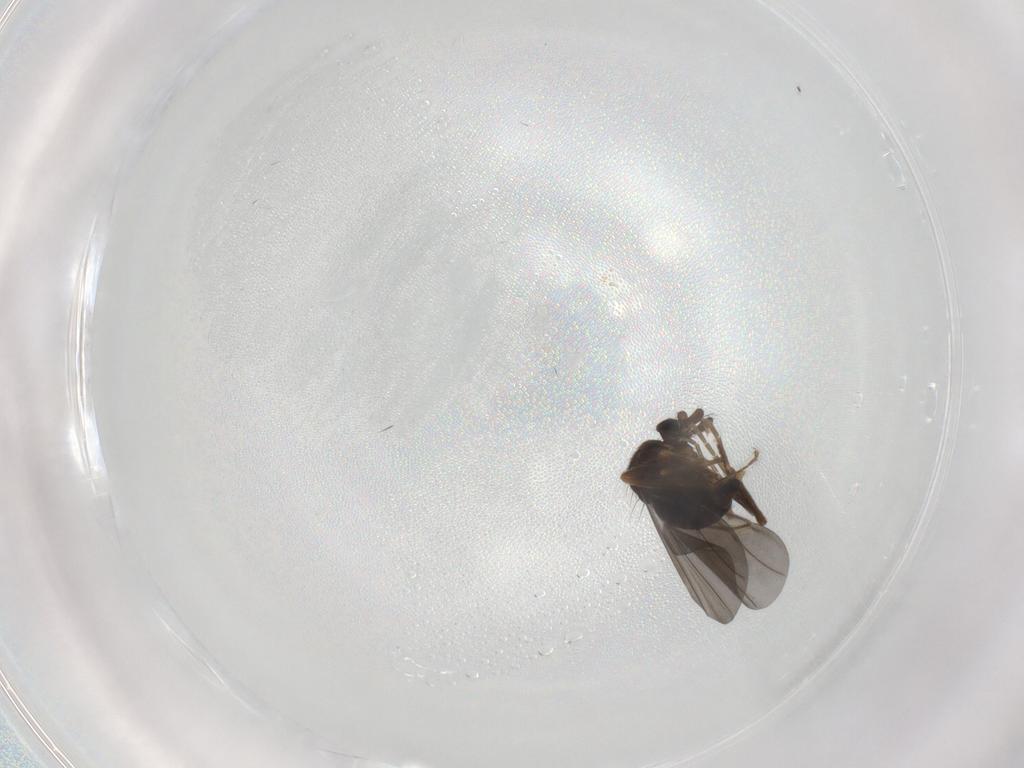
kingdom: Animalia
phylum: Arthropoda
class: Insecta
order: Diptera
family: Phoridae
